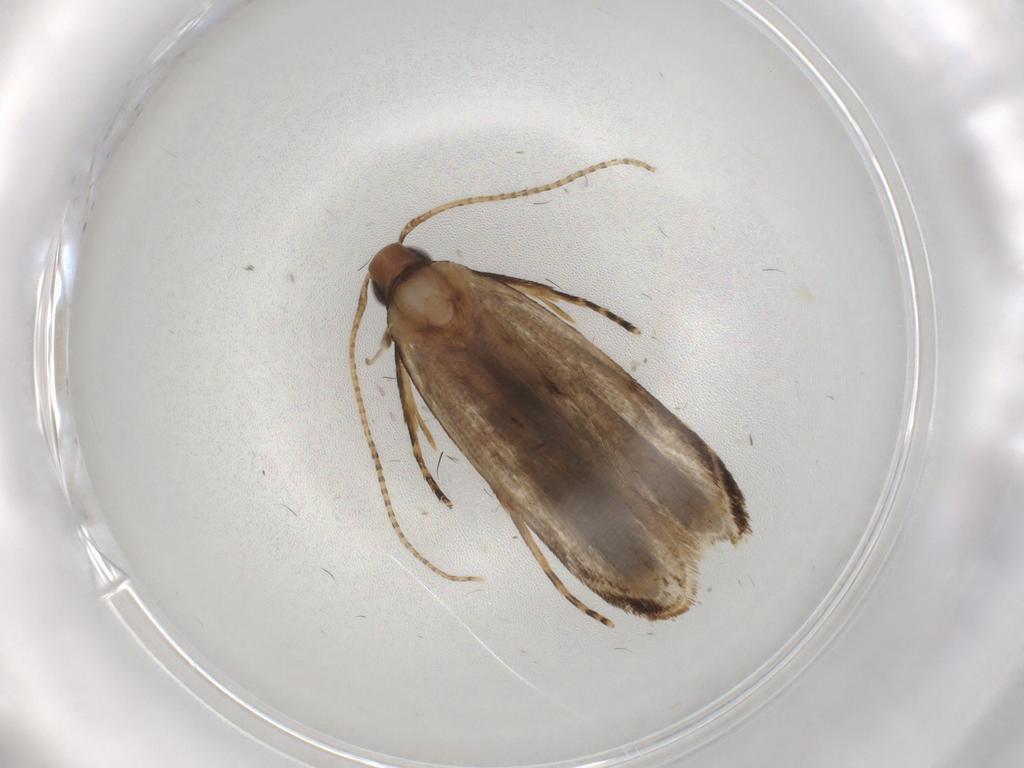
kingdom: Animalia
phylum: Arthropoda
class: Insecta
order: Lepidoptera
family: Gelechiidae
